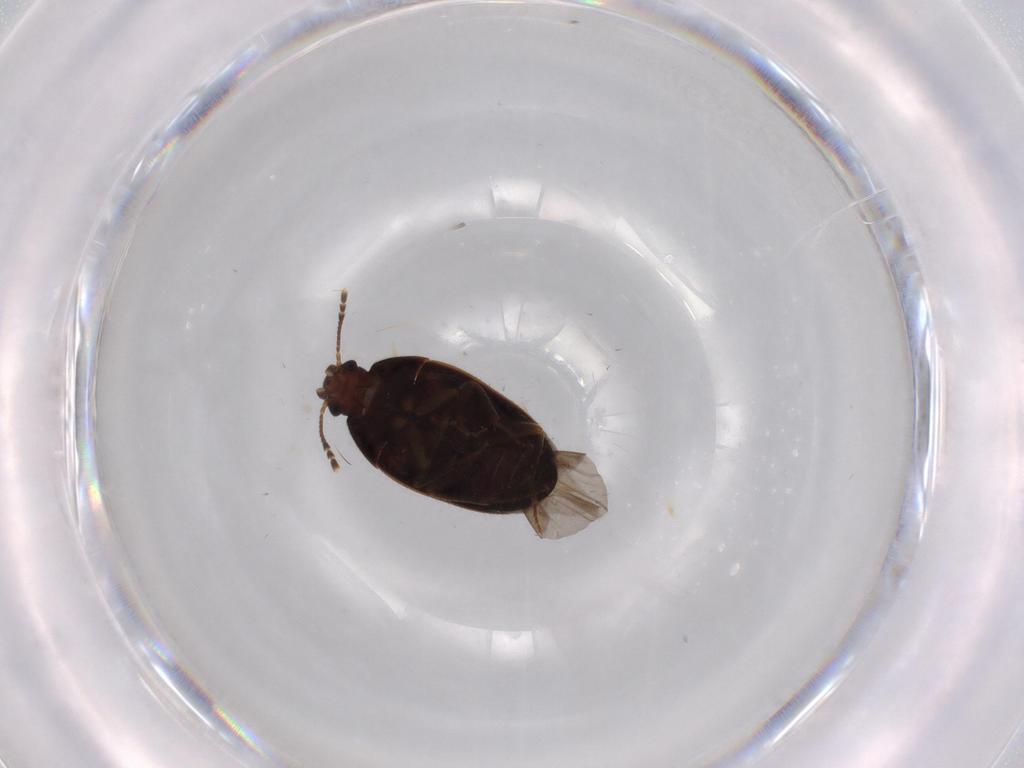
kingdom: Animalia
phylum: Arthropoda
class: Insecta
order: Coleoptera
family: Mycetophagidae
